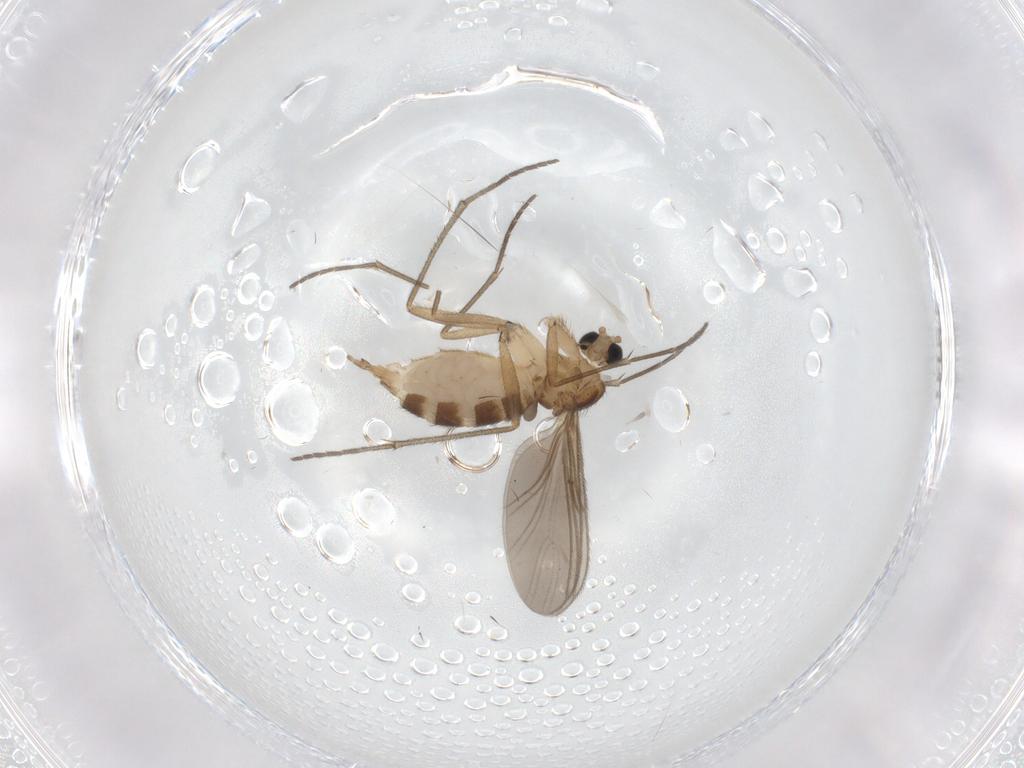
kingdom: Animalia
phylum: Arthropoda
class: Insecta
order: Diptera
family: Sciaridae
